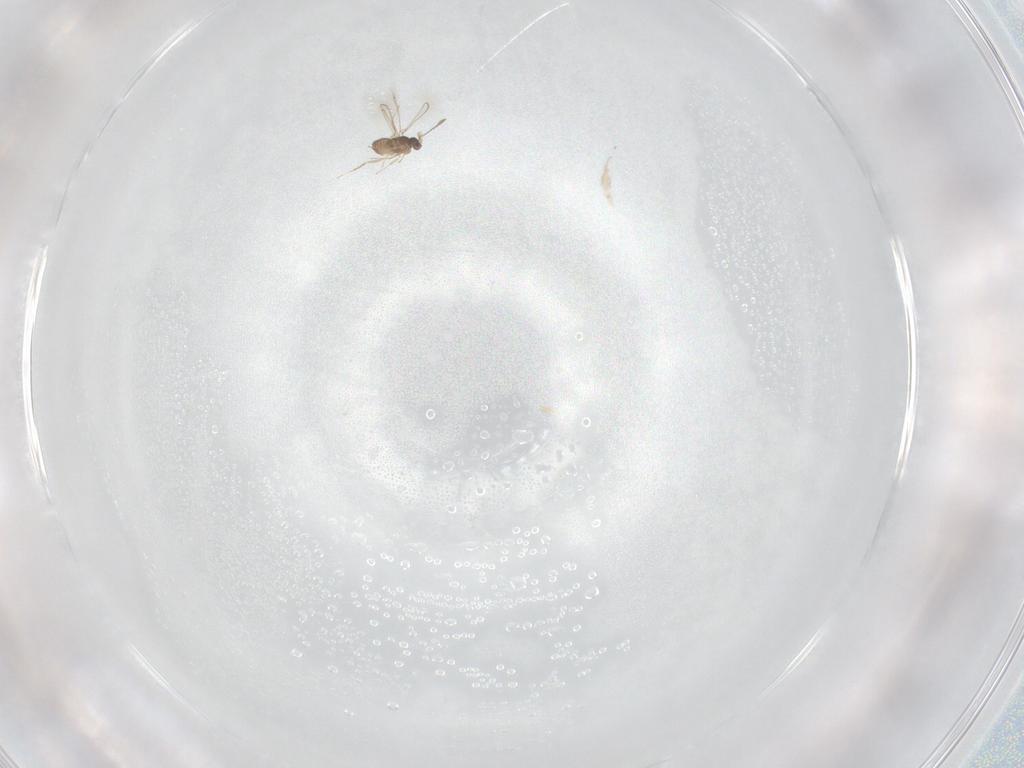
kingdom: Animalia
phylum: Arthropoda
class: Insecta
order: Hymenoptera
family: Mymaridae
